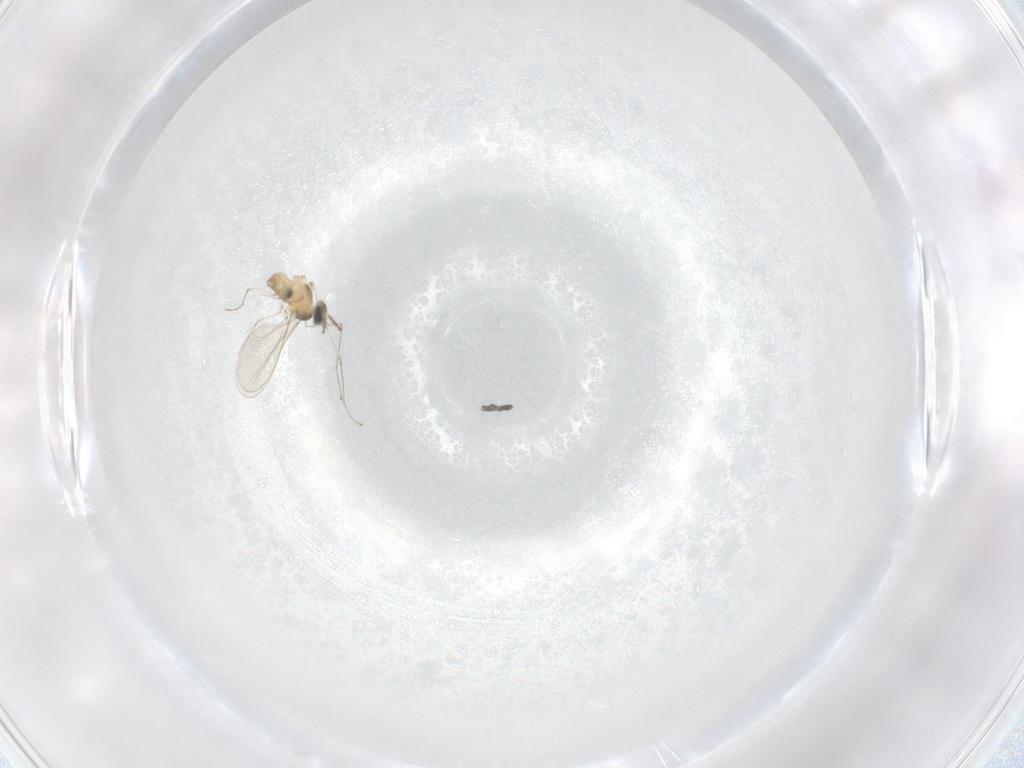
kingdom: Animalia
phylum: Arthropoda
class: Insecta
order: Diptera
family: Cecidomyiidae
